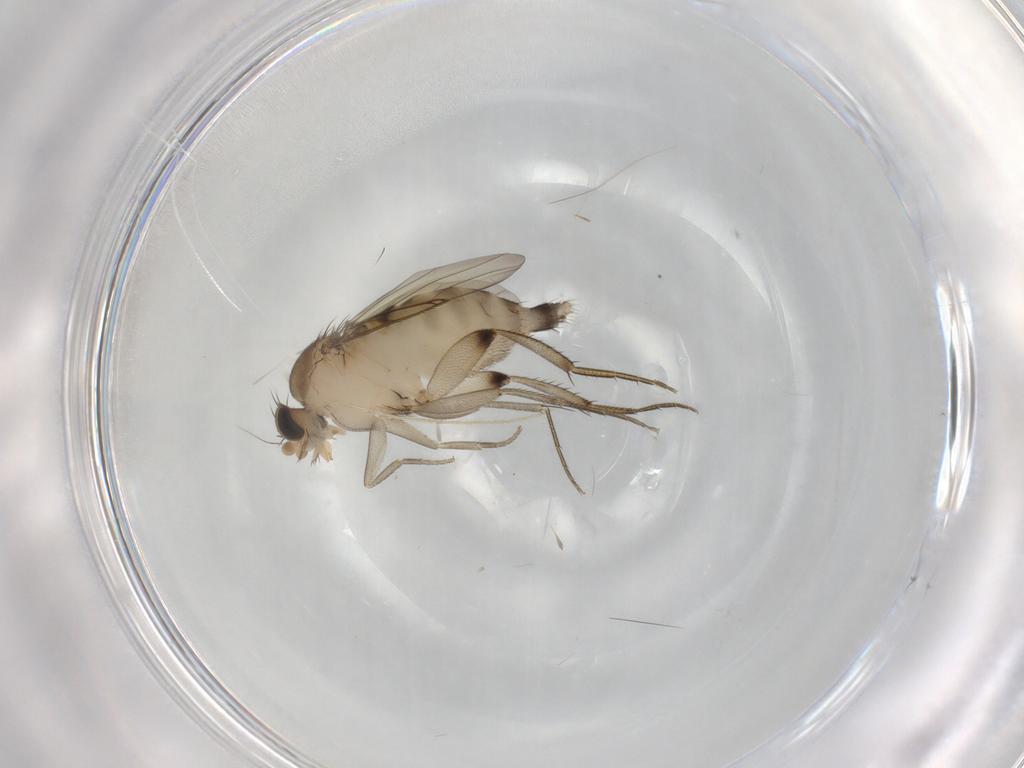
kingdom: Animalia
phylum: Arthropoda
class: Insecta
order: Diptera
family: Phoridae
